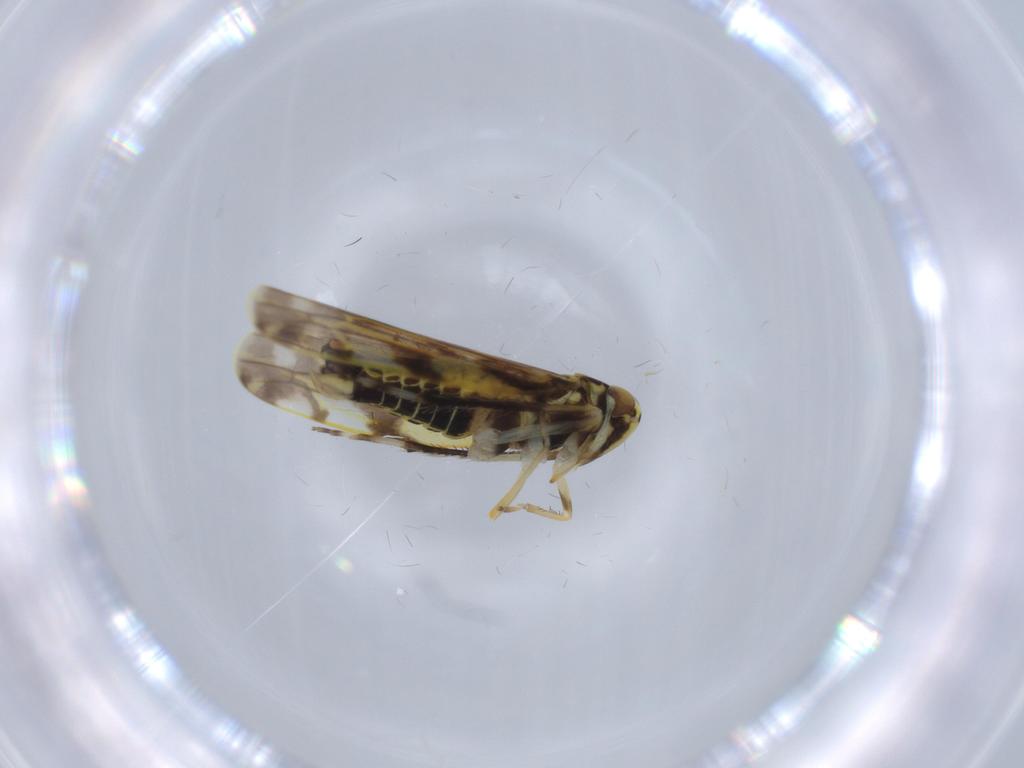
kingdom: Animalia
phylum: Arthropoda
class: Insecta
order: Hemiptera
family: Cicadellidae
